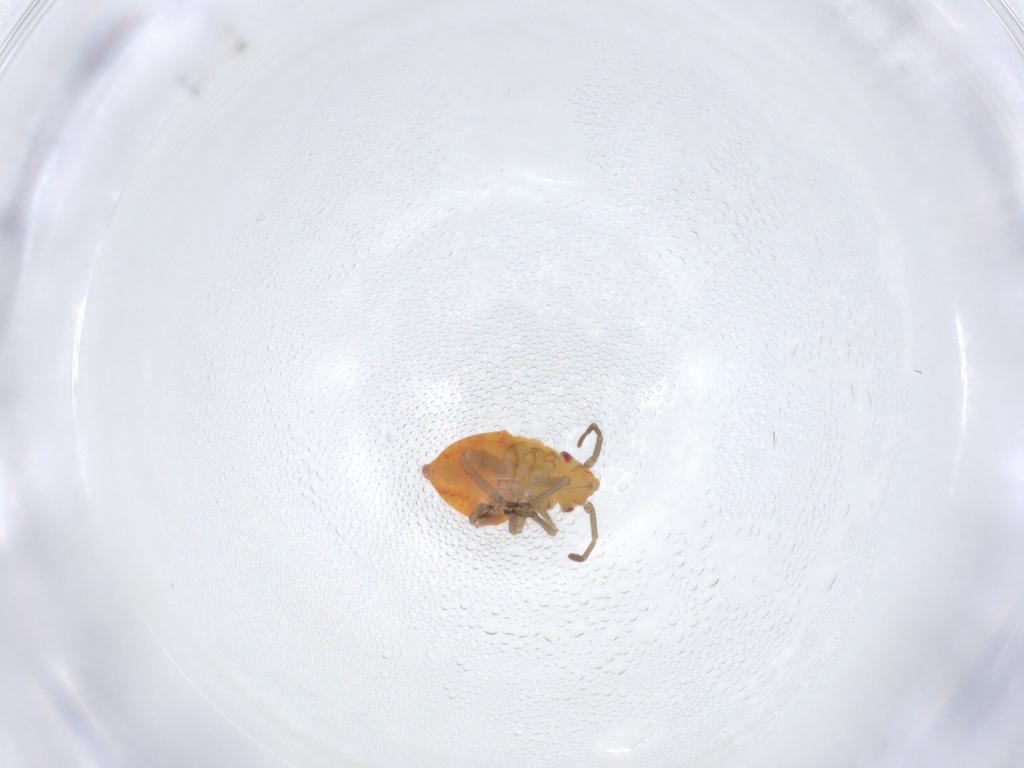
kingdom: Animalia
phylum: Arthropoda
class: Insecta
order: Hemiptera
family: Miridae
